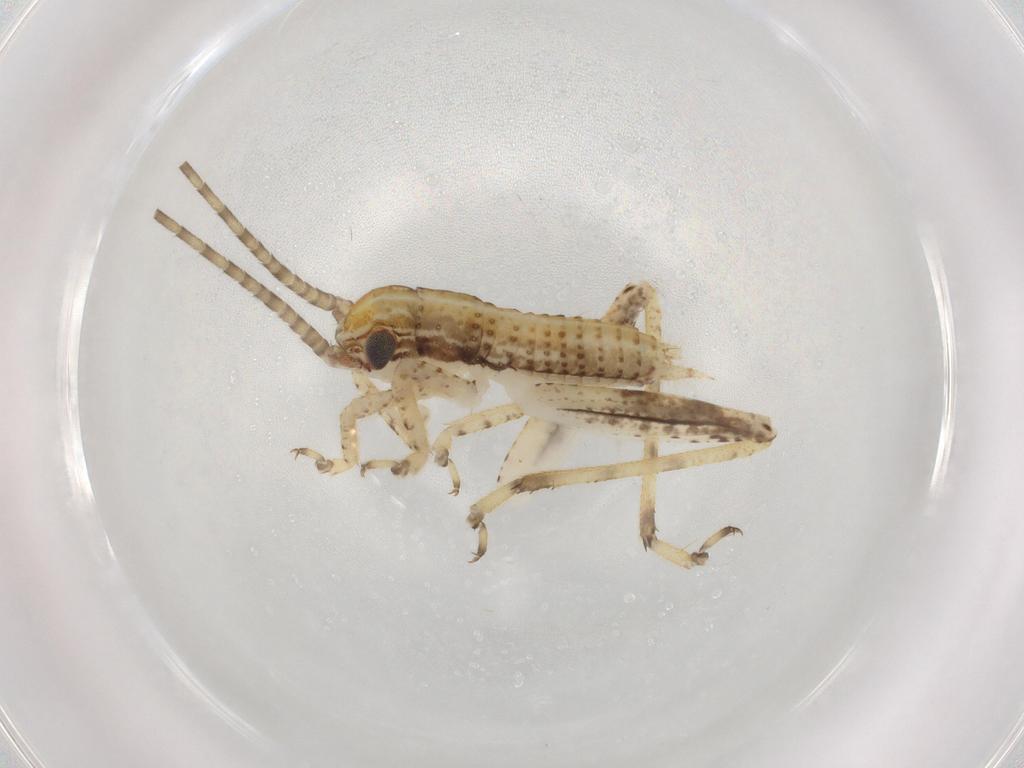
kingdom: Animalia
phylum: Arthropoda
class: Insecta
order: Orthoptera
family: Gryllidae
